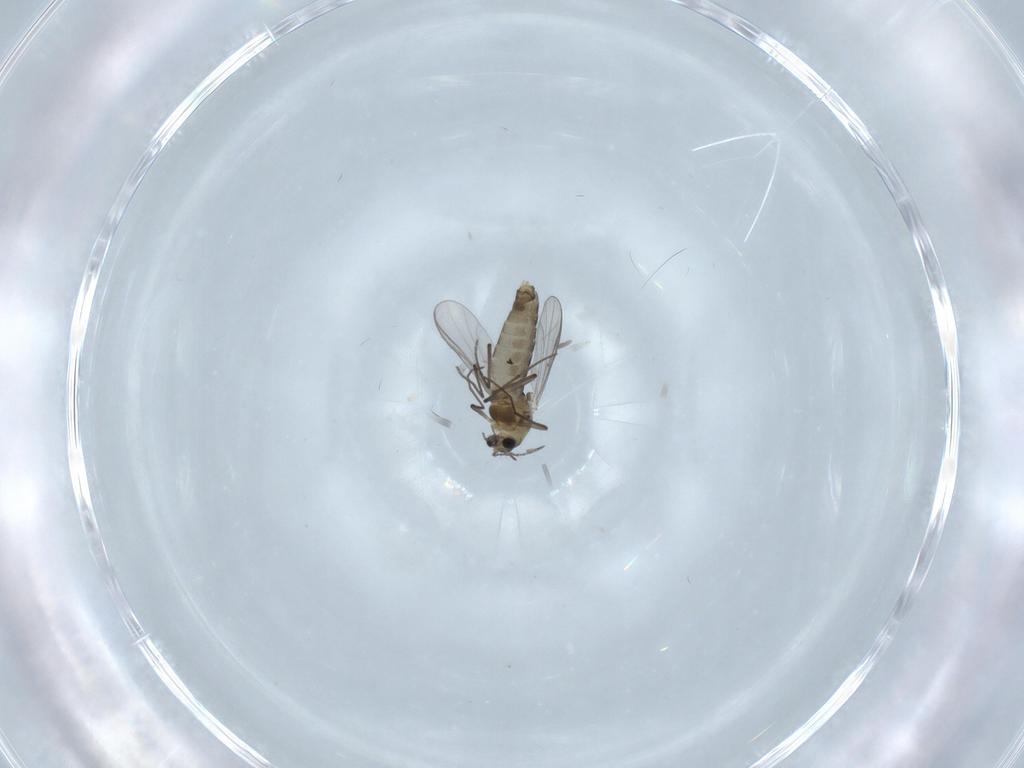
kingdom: Animalia
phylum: Arthropoda
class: Insecta
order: Diptera
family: Chironomidae
